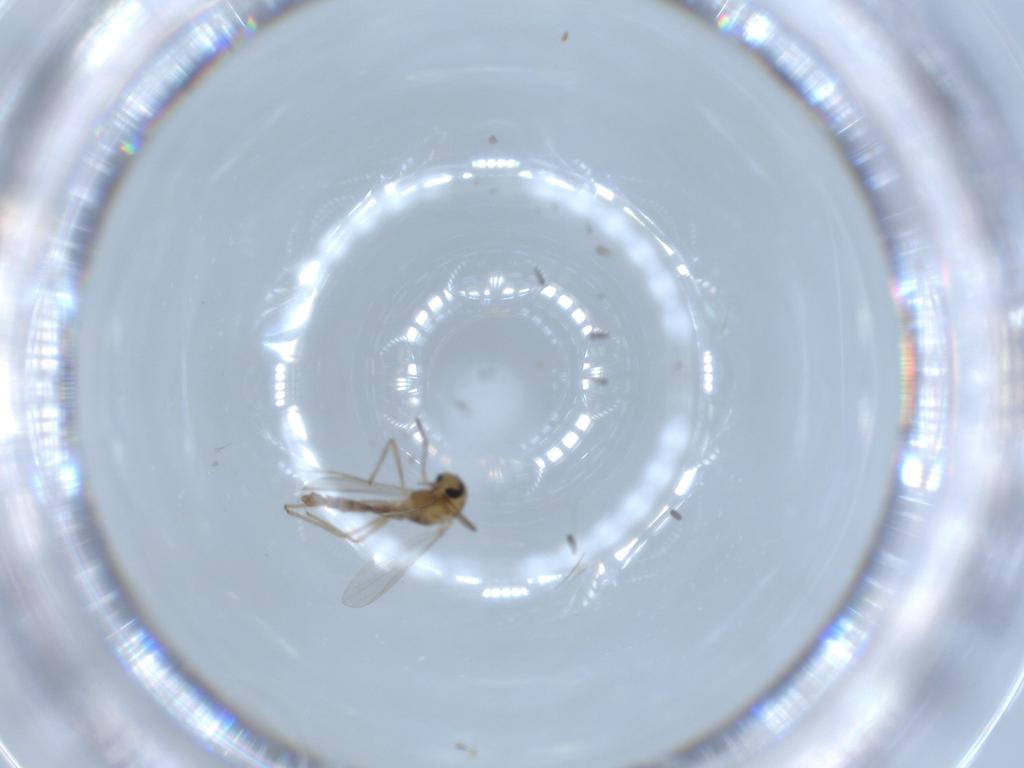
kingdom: Animalia
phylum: Arthropoda
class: Insecta
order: Diptera
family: Chironomidae
